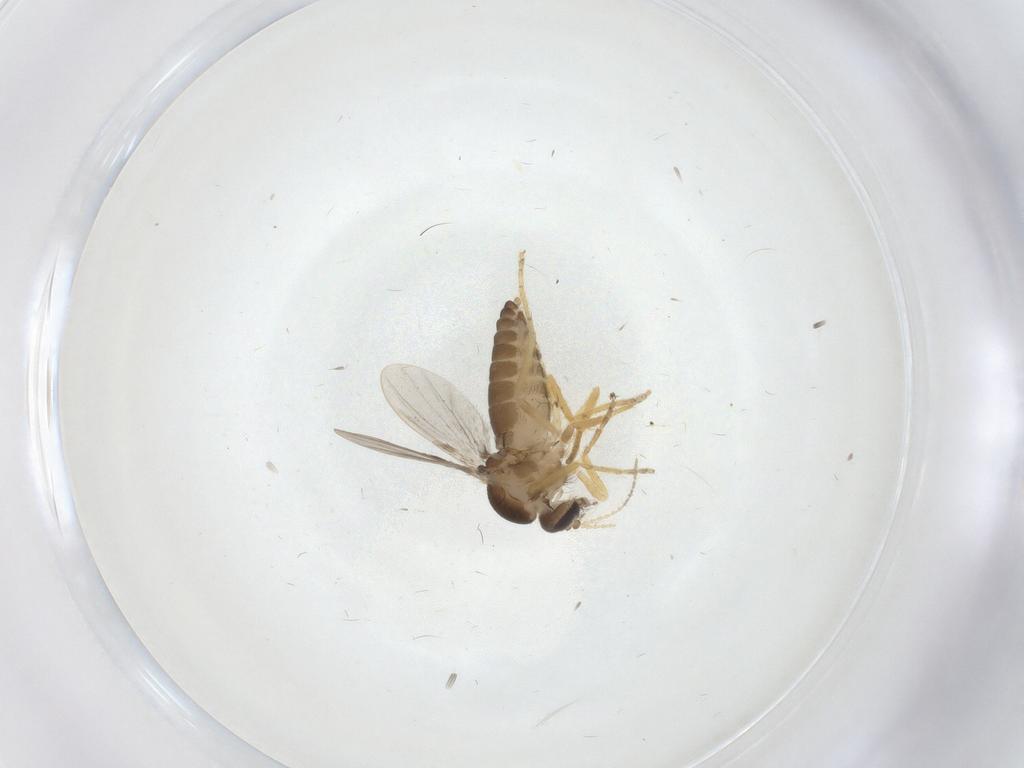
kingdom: Animalia
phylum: Arthropoda
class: Insecta
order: Diptera
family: Ceratopogonidae
